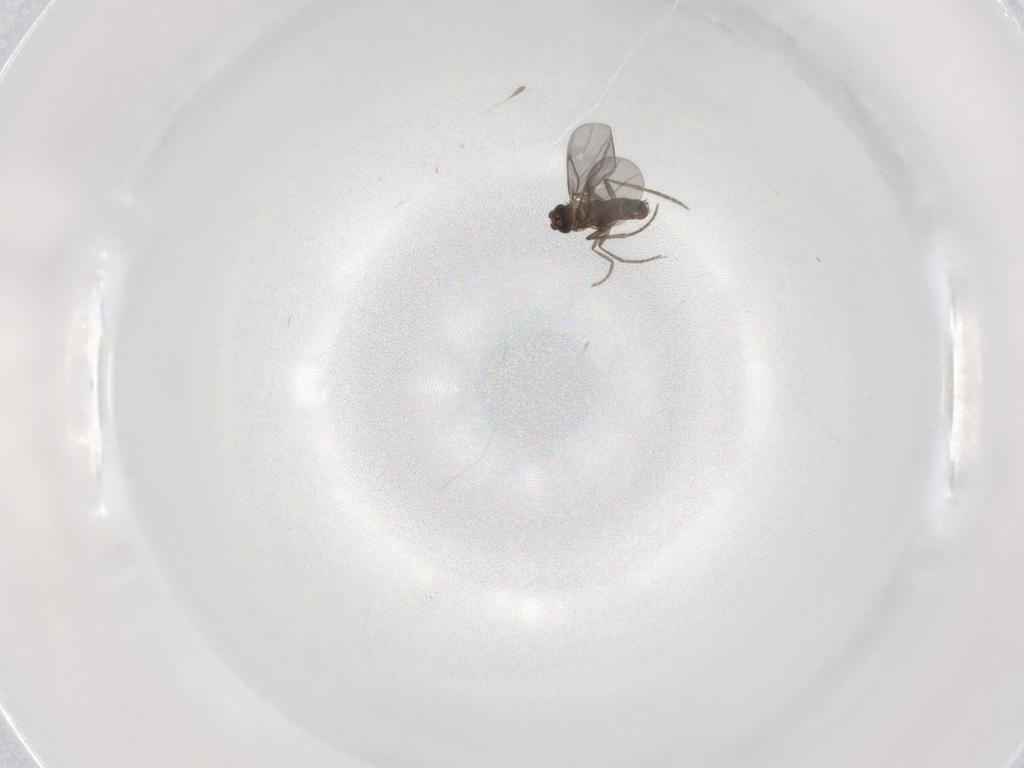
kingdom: Animalia
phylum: Arthropoda
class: Insecta
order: Diptera
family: Phoridae
